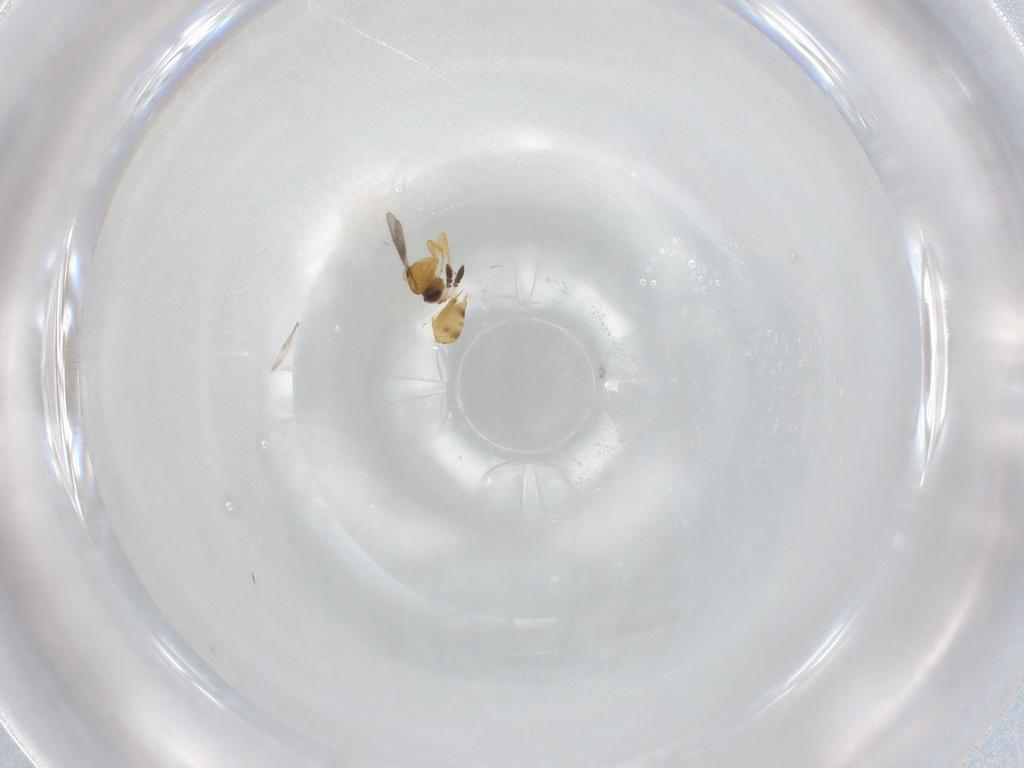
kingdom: Animalia
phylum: Arthropoda
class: Insecta
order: Hymenoptera
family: Ceraphronidae
